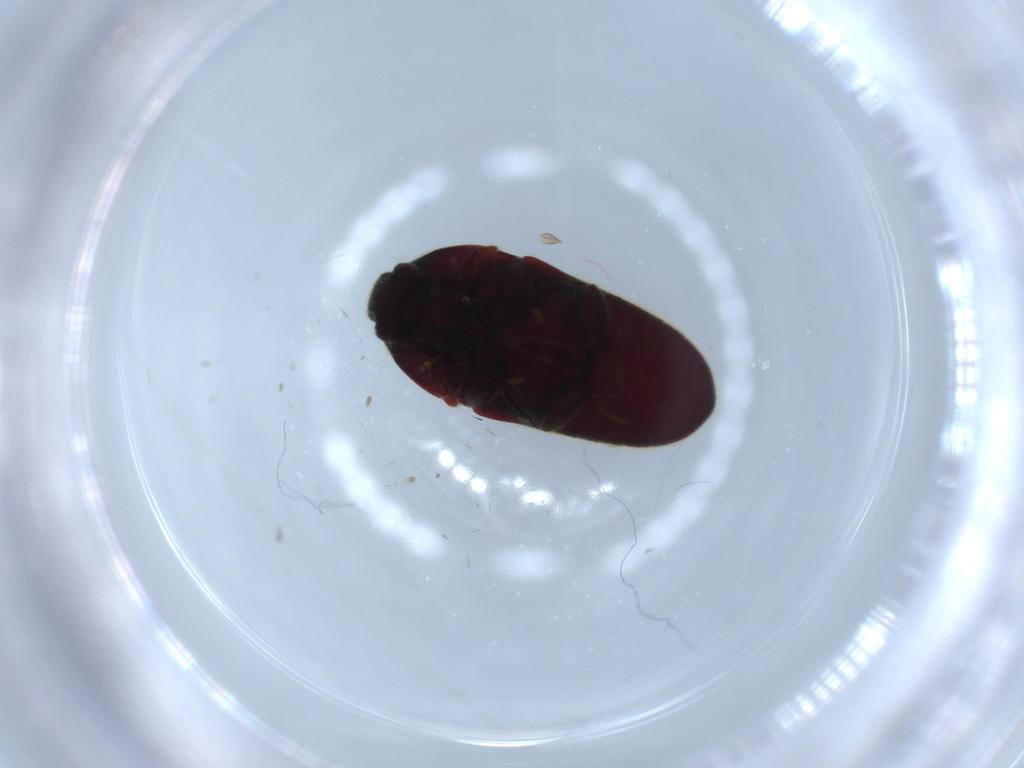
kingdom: Animalia
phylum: Arthropoda
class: Insecta
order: Coleoptera
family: Throscidae
